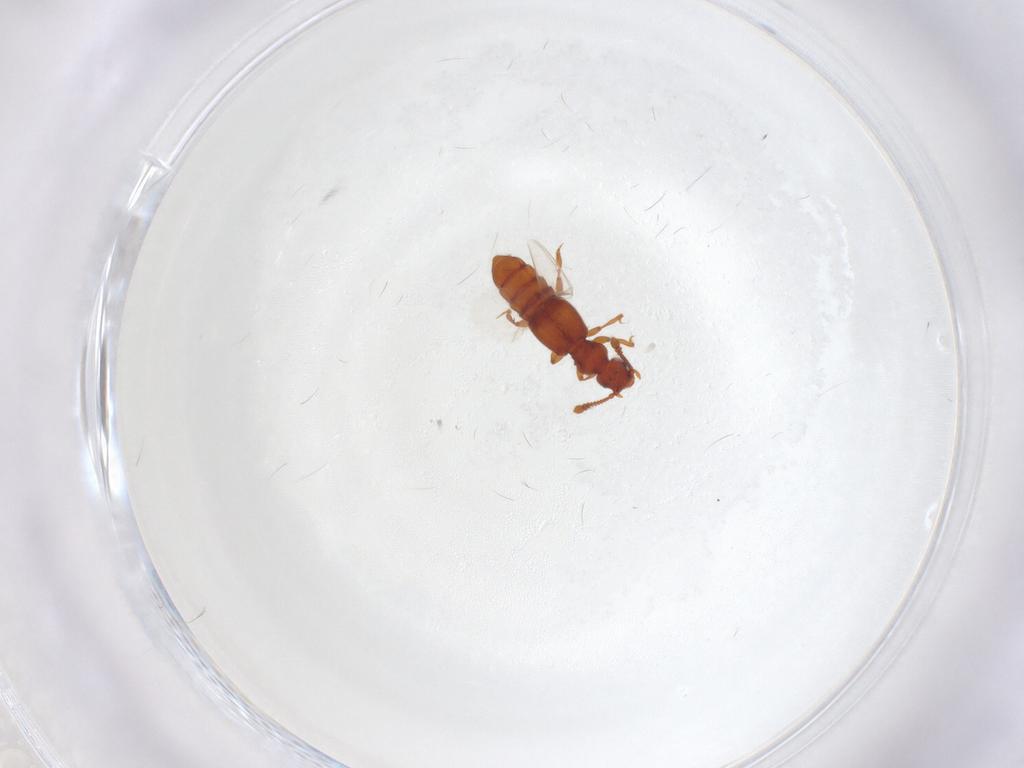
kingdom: Animalia
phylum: Arthropoda
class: Insecta
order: Coleoptera
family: Staphylinidae
